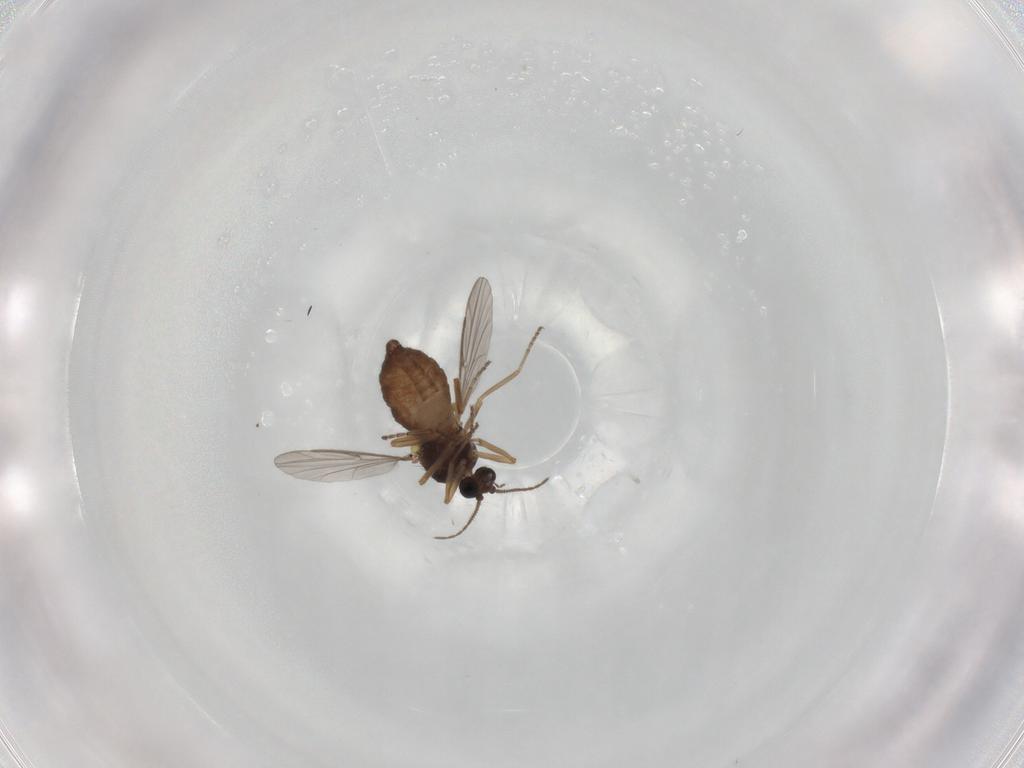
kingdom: Animalia
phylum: Arthropoda
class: Insecta
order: Diptera
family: Ceratopogonidae
